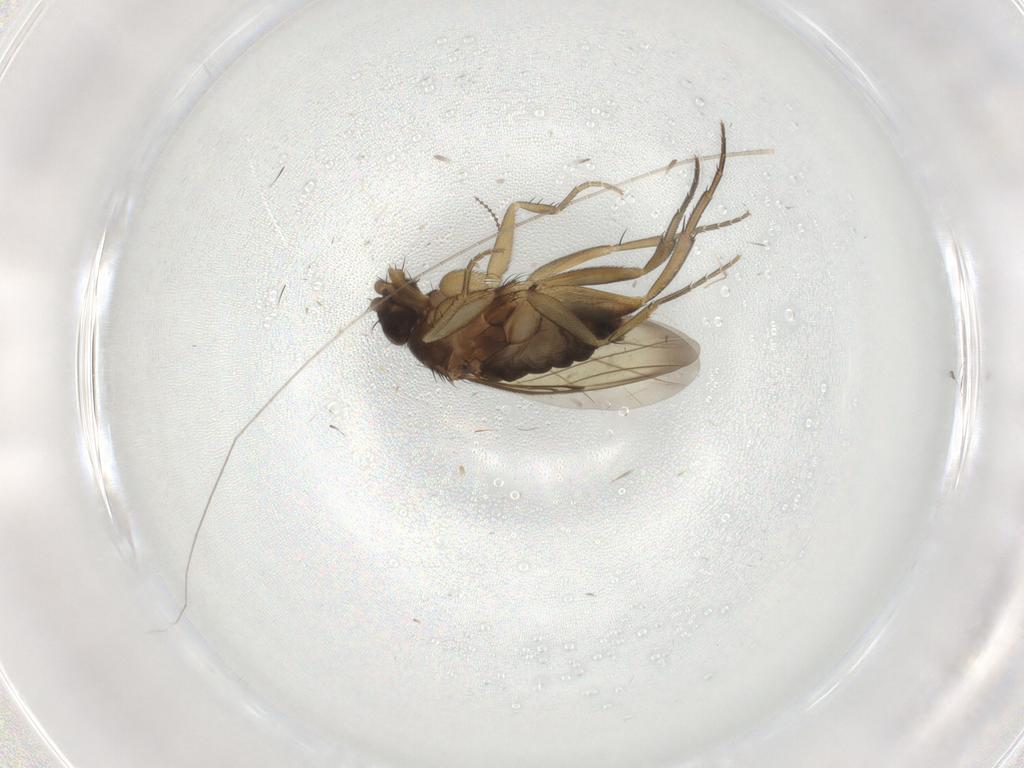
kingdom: Animalia
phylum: Arthropoda
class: Insecta
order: Diptera
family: Phoridae
